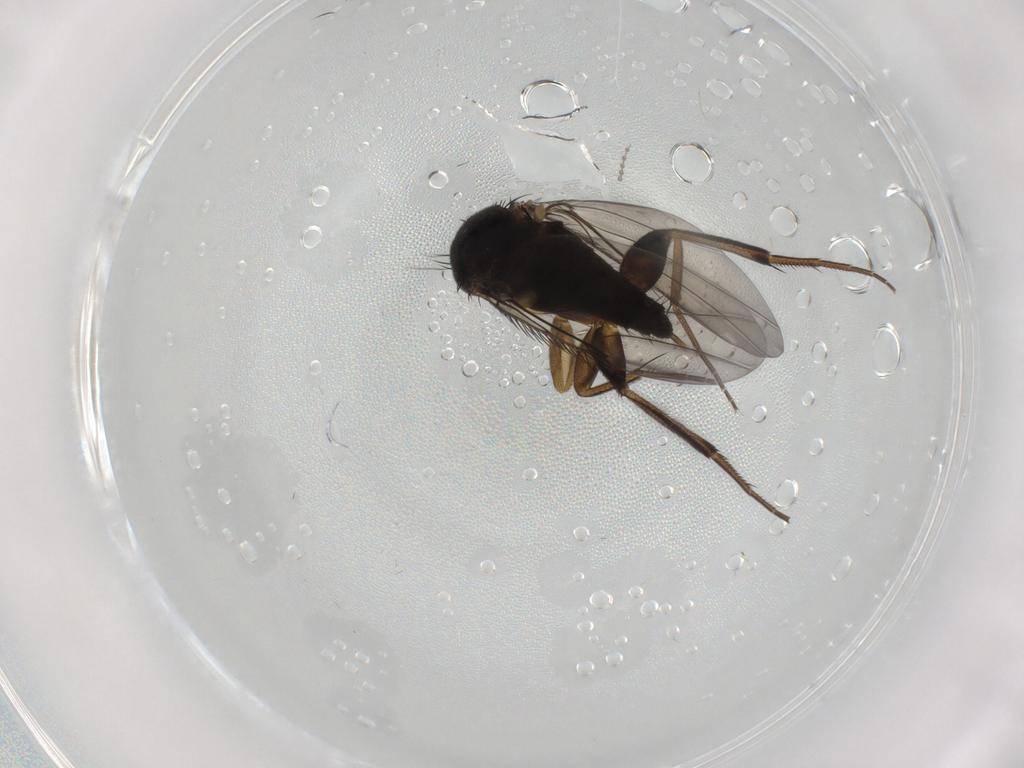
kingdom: Animalia
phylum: Arthropoda
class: Insecta
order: Diptera
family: Phoridae
